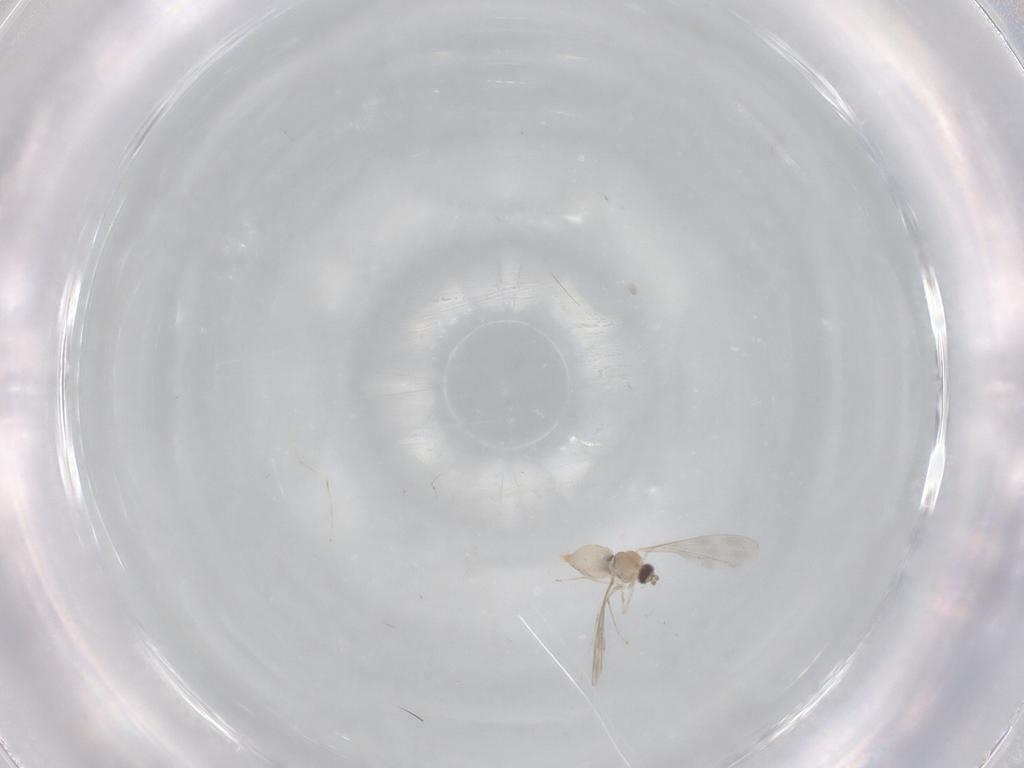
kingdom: Animalia
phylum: Arthropoda
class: Insecta
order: Diptera
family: Cecidomyiidae
